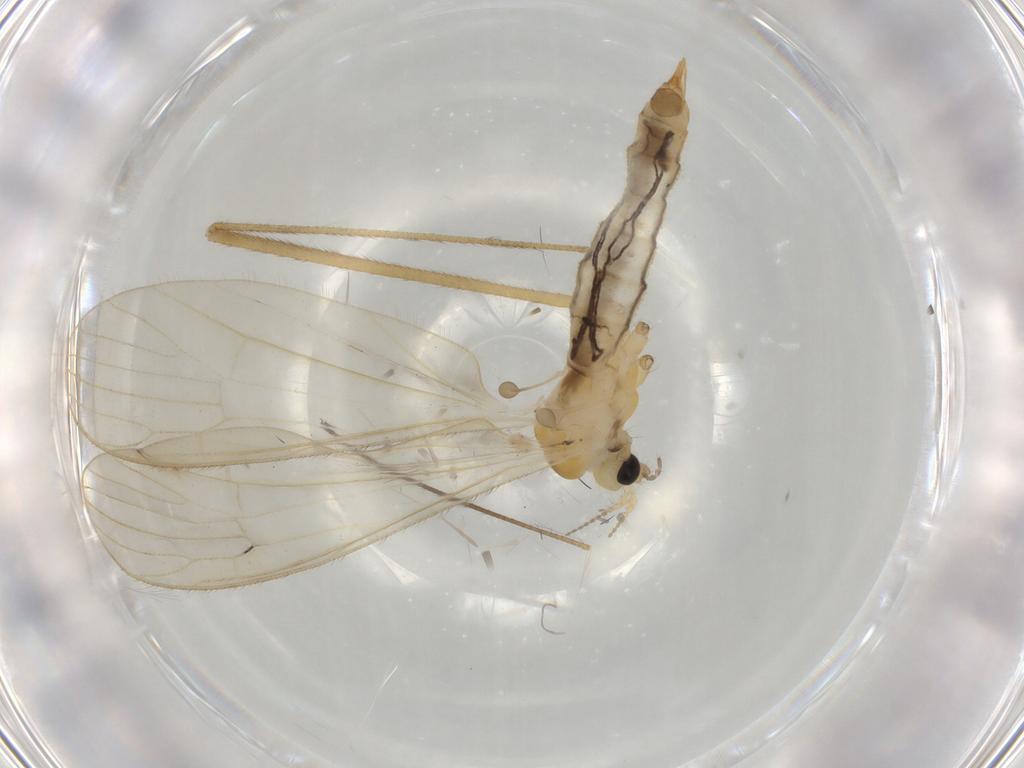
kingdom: Animalia
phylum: Arthropoda
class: Insecta
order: Diptera
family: Limoniidae
